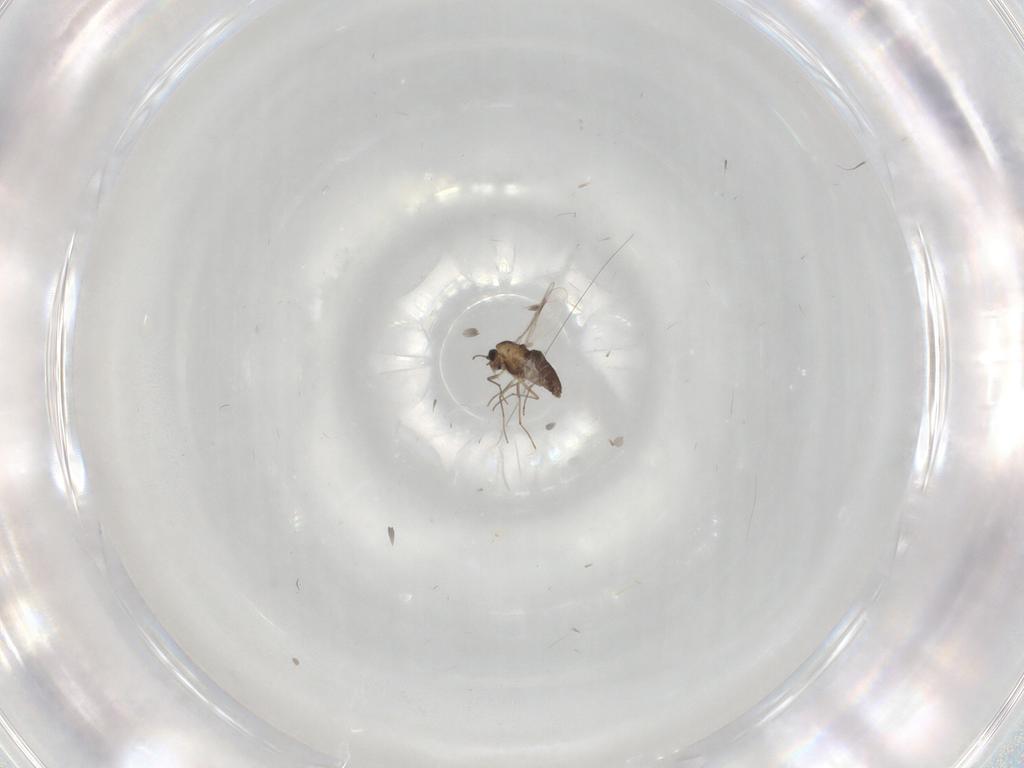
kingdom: Animalia
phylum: Arthropoda
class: Insecta
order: Diptera
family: Chironomidae
